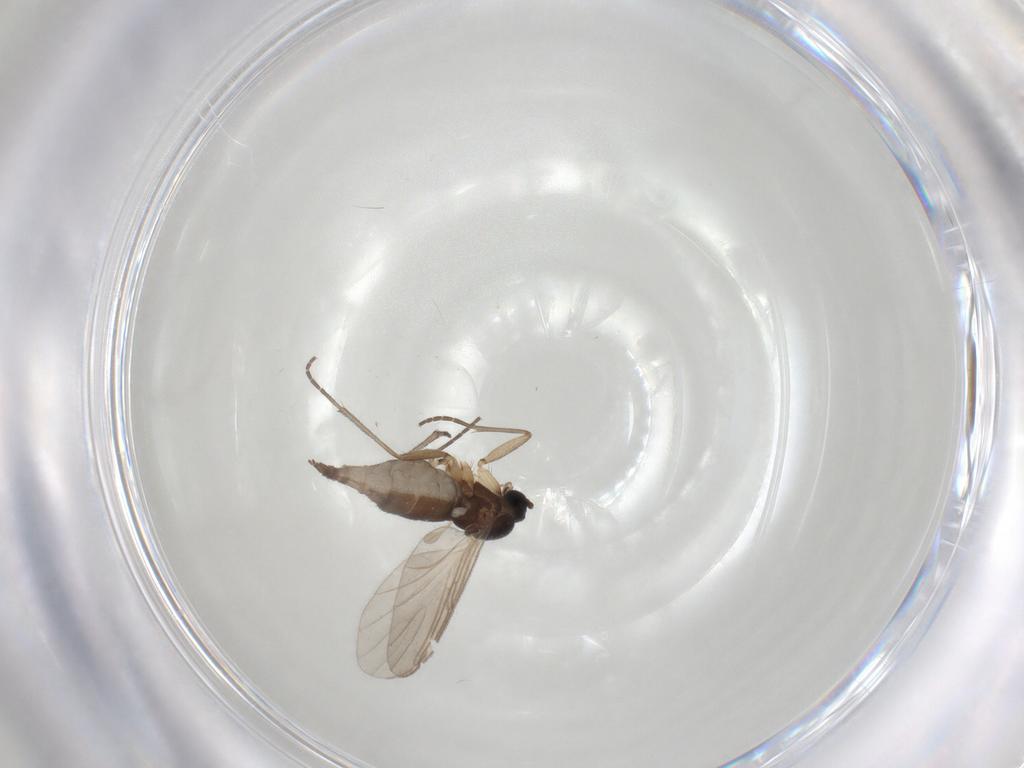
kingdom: Animalia
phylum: Arthropoda
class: Insecta
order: Diptera
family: Sciaridae
